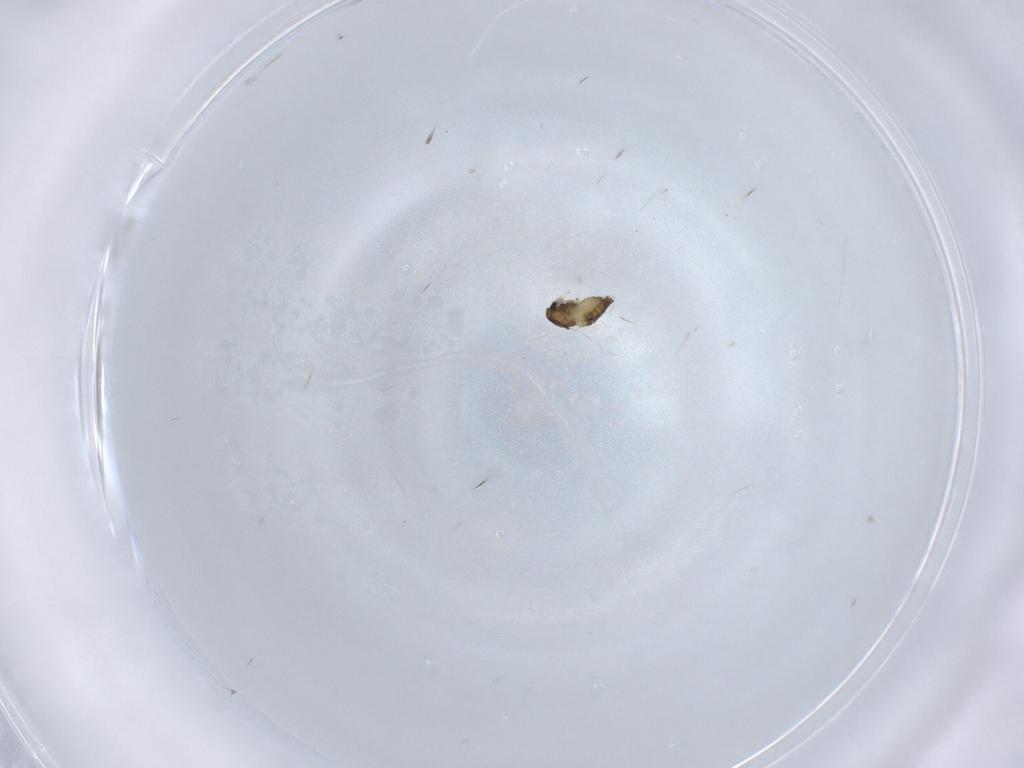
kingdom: Animalia
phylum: Arthropoda
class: Insecta
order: Diptera
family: Chironomidae
